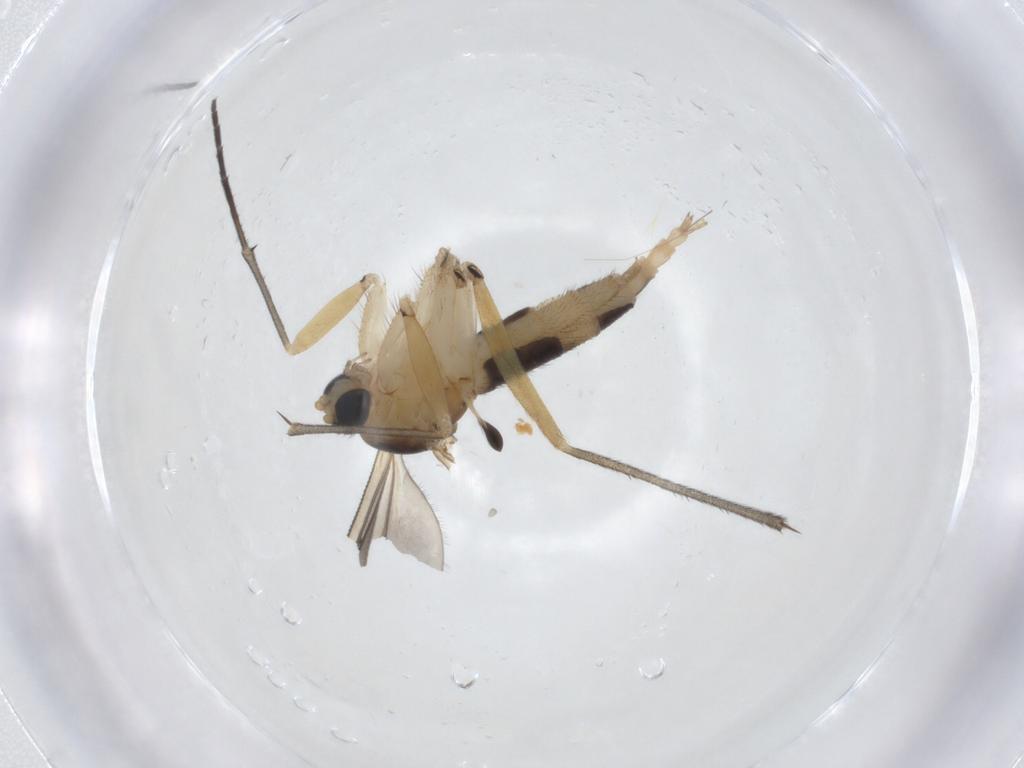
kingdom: Animalia
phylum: Arthropoda
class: Insecta
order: Diptera
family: Sciaridae
